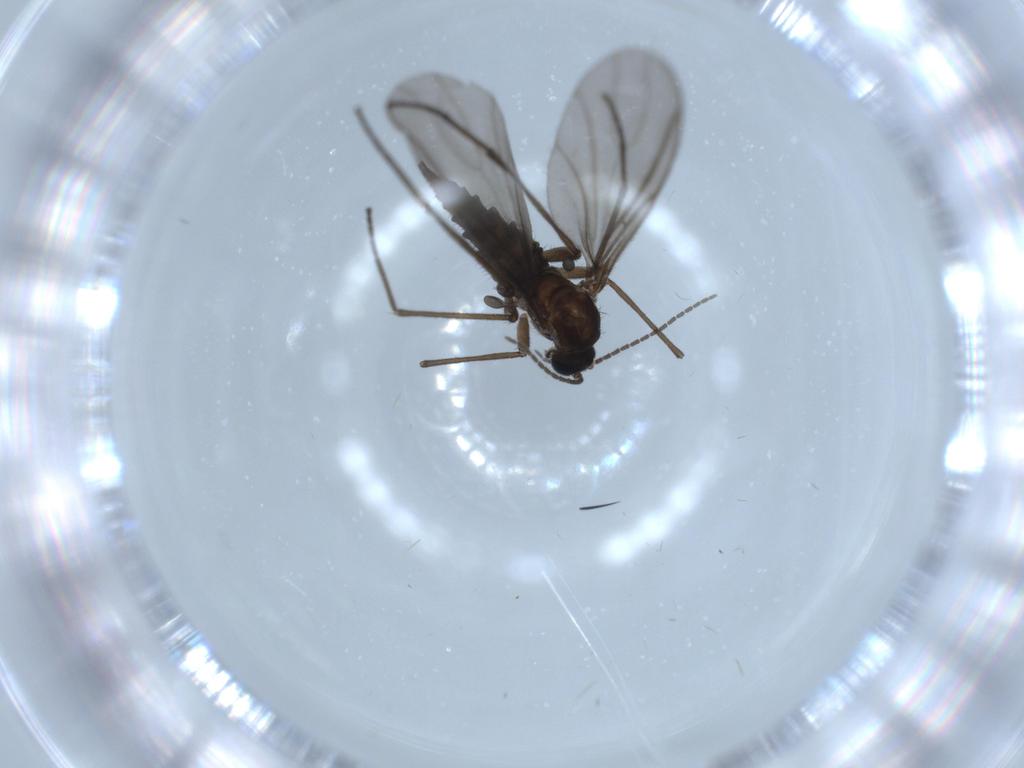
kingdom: Animalia
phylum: Arthropoda
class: Insecta
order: Diptera
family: Sciaridae
